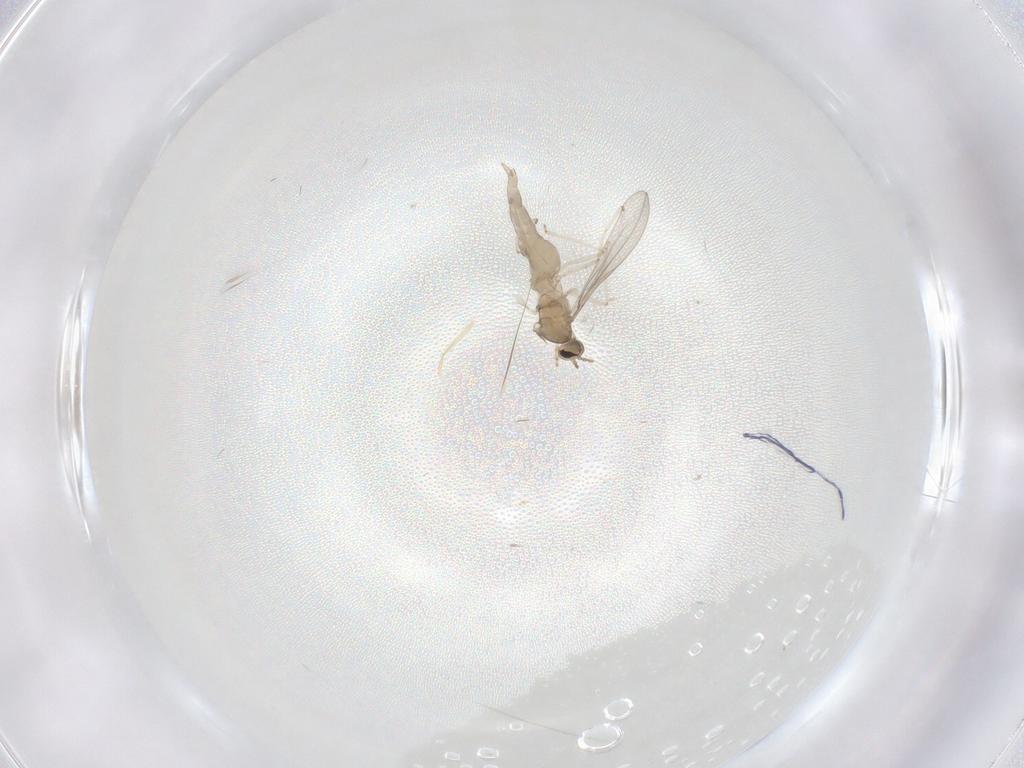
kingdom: Animalia
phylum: Arthropoda
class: Insecta
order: Diptera
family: Cecidomyiidae
